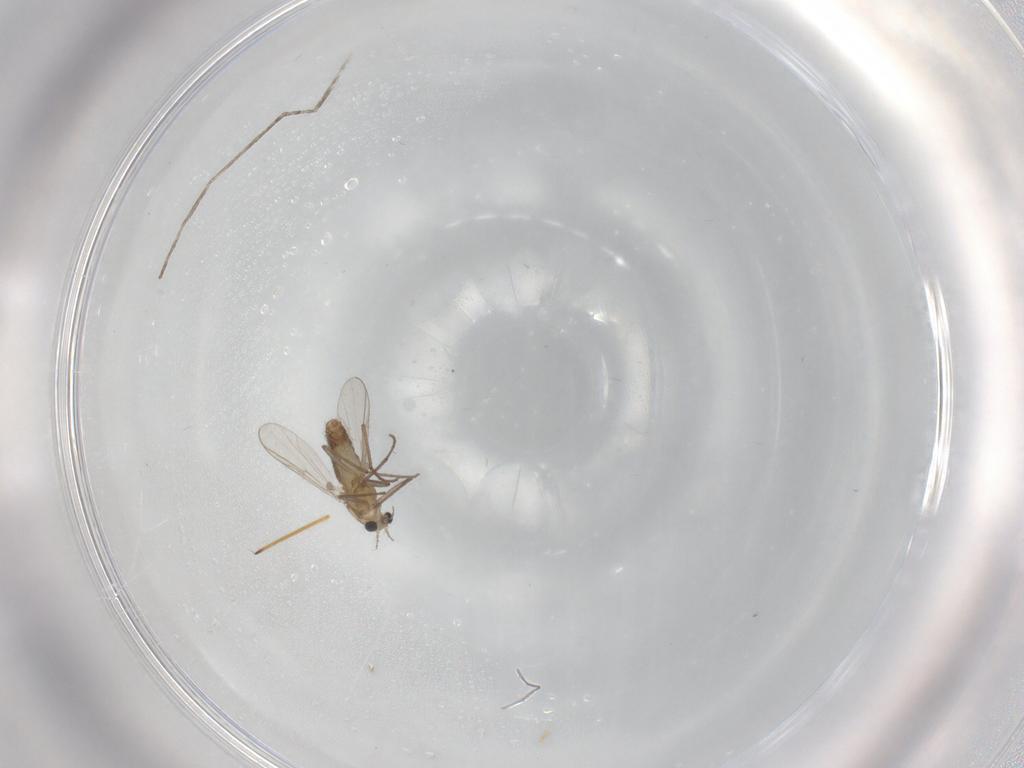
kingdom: Animalia
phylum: Arthropoda
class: Insecta
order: Diptera
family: Chironomidae
